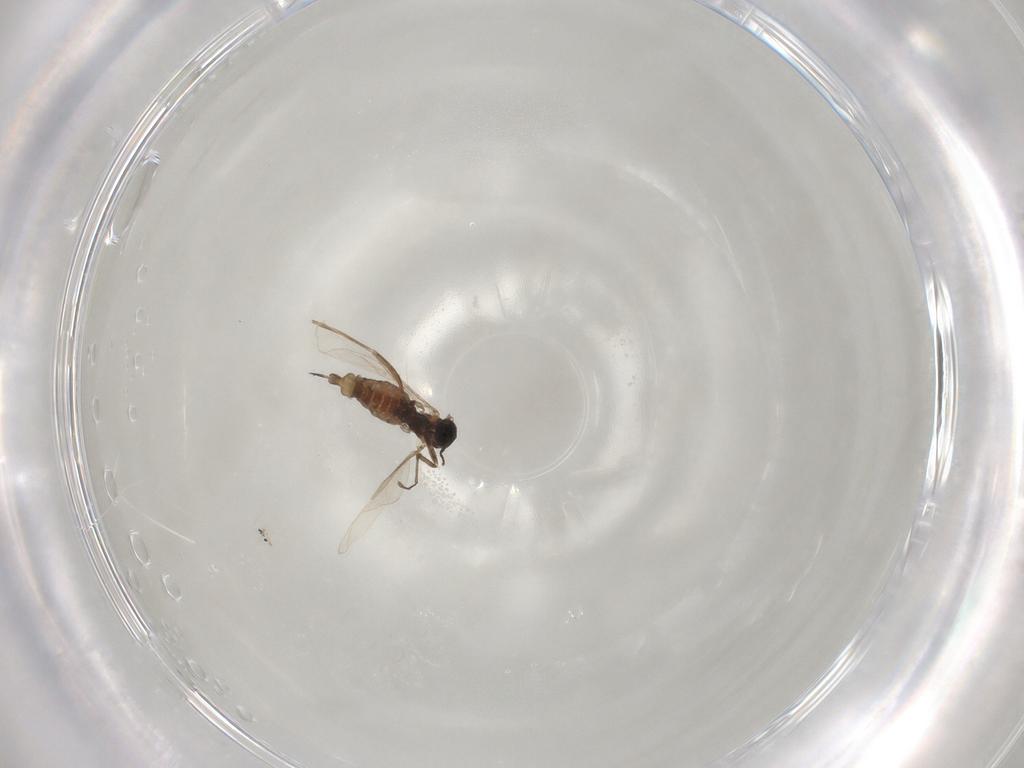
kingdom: Animalia
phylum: Arthropoda
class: Insecta
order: Diptera
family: Cecidomyiidae
